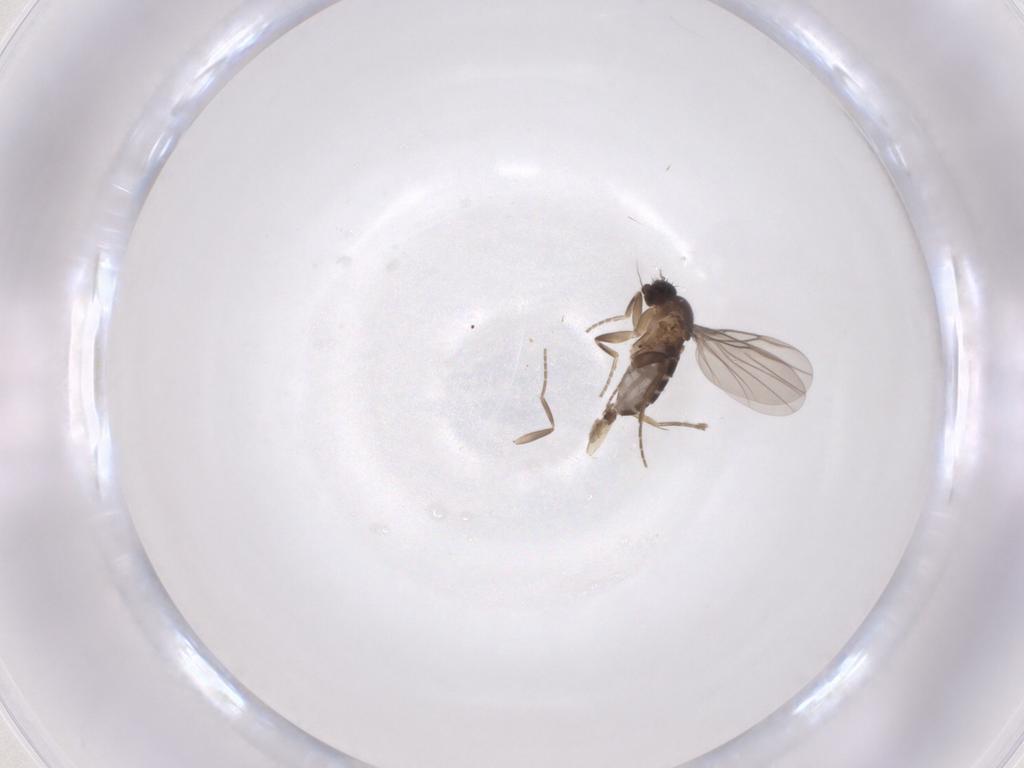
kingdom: Animalia
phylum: Arthropoda
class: Insecta
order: Diptera
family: Phoridae
